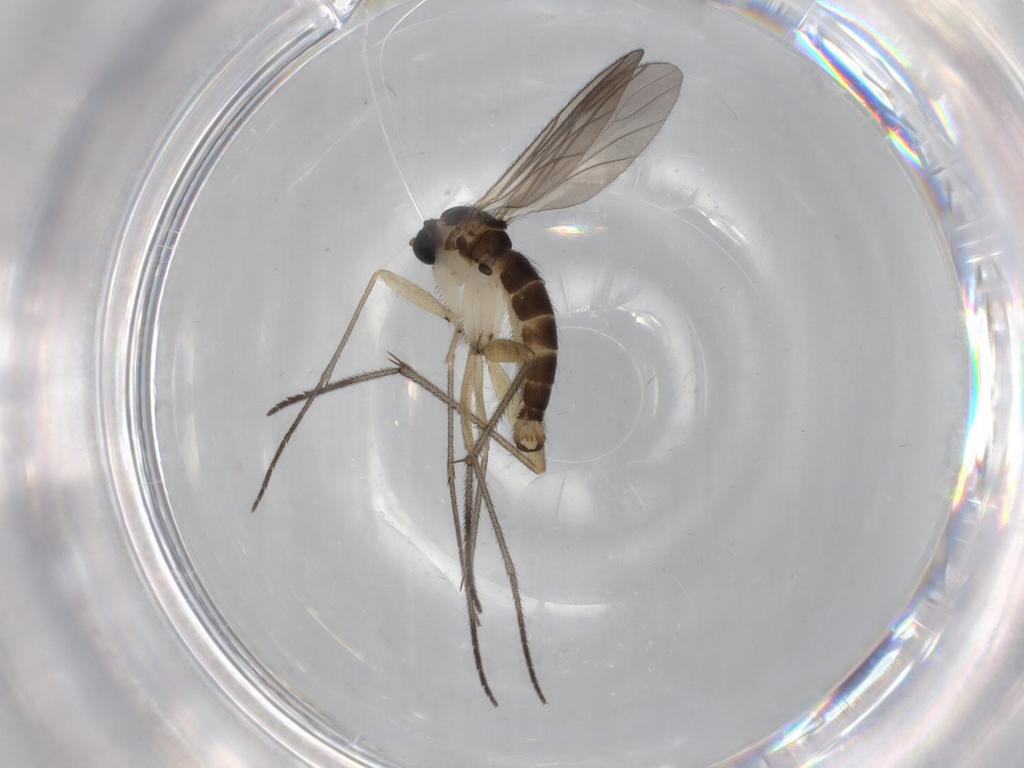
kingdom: Animalia
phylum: Arthropoda
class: Insecta
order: Diptera
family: Sciaridae
